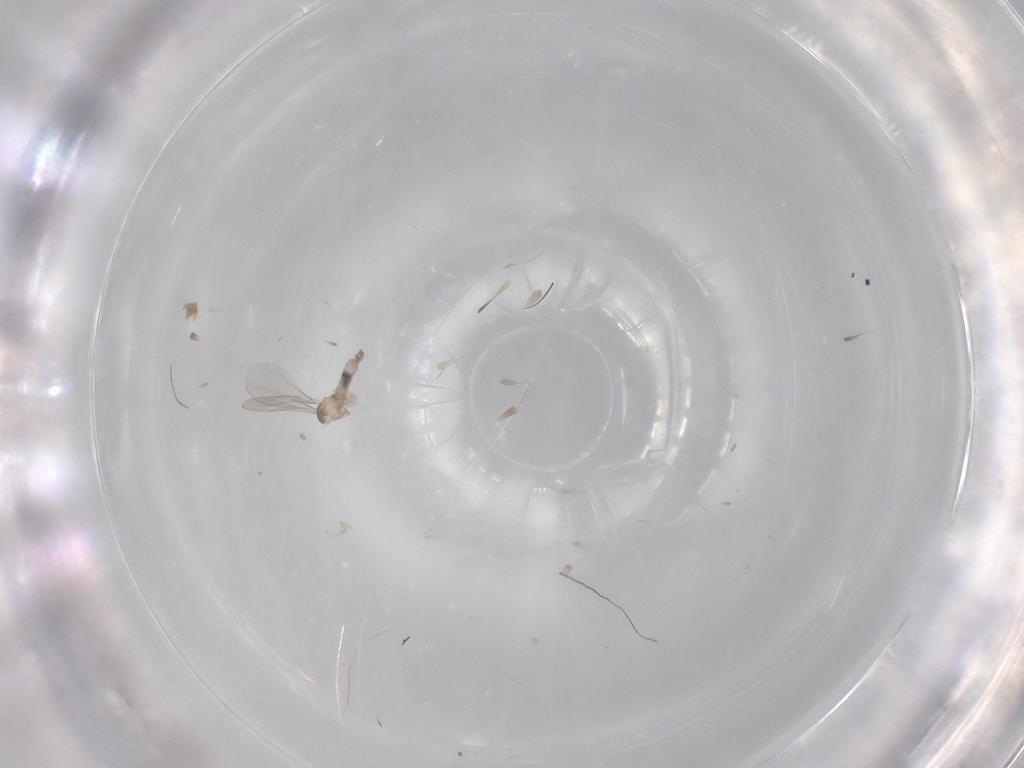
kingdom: Animalia
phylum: Arthropoda
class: Insecta
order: Diptera
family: Cecidomyiidae
